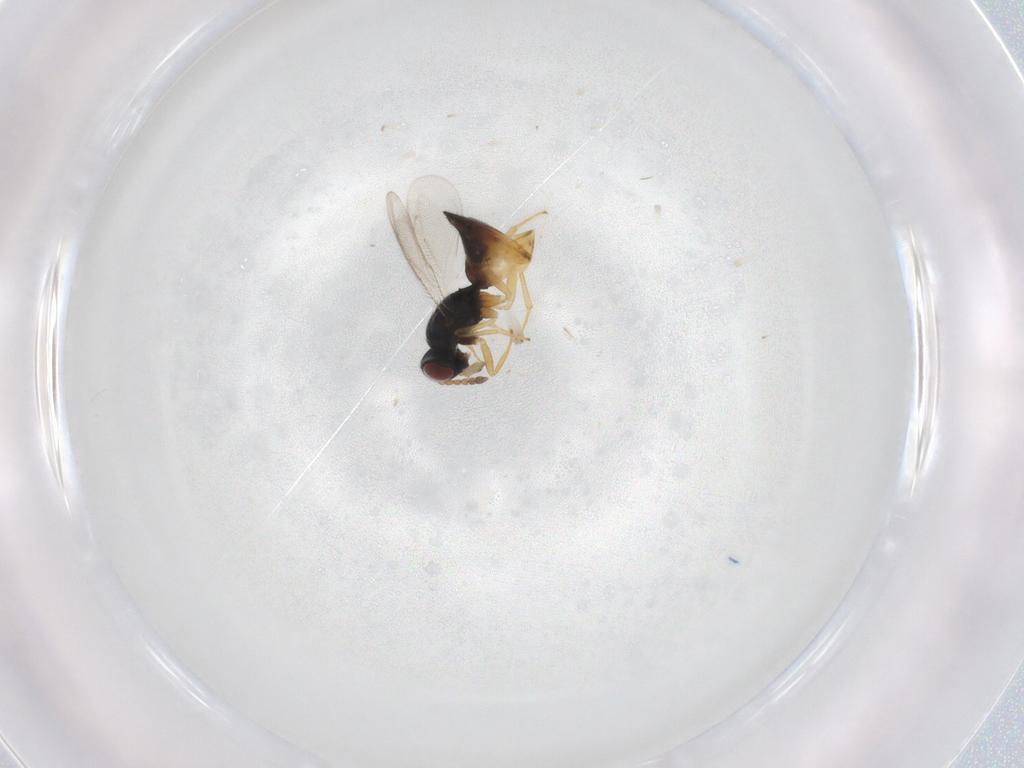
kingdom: Animalia
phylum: Arthropoda
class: Insecta
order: Hymenoptera
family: Eulophidae
